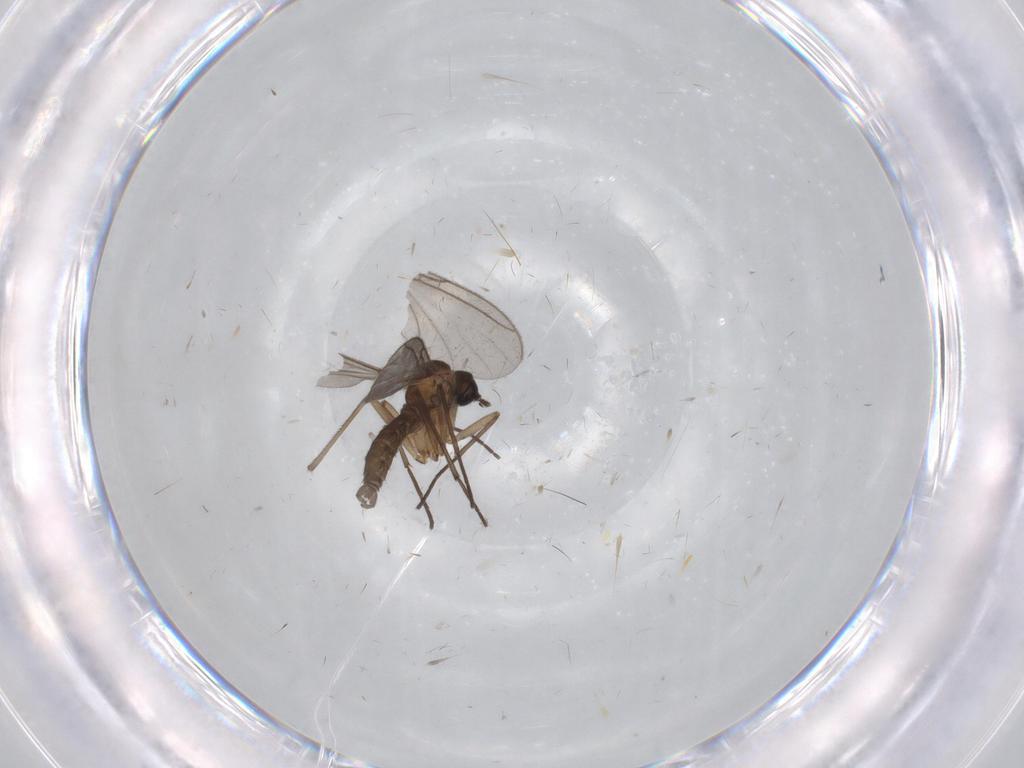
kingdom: Animalia
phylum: Arthropoda
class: Insecta
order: Diptera
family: Sciaridae
